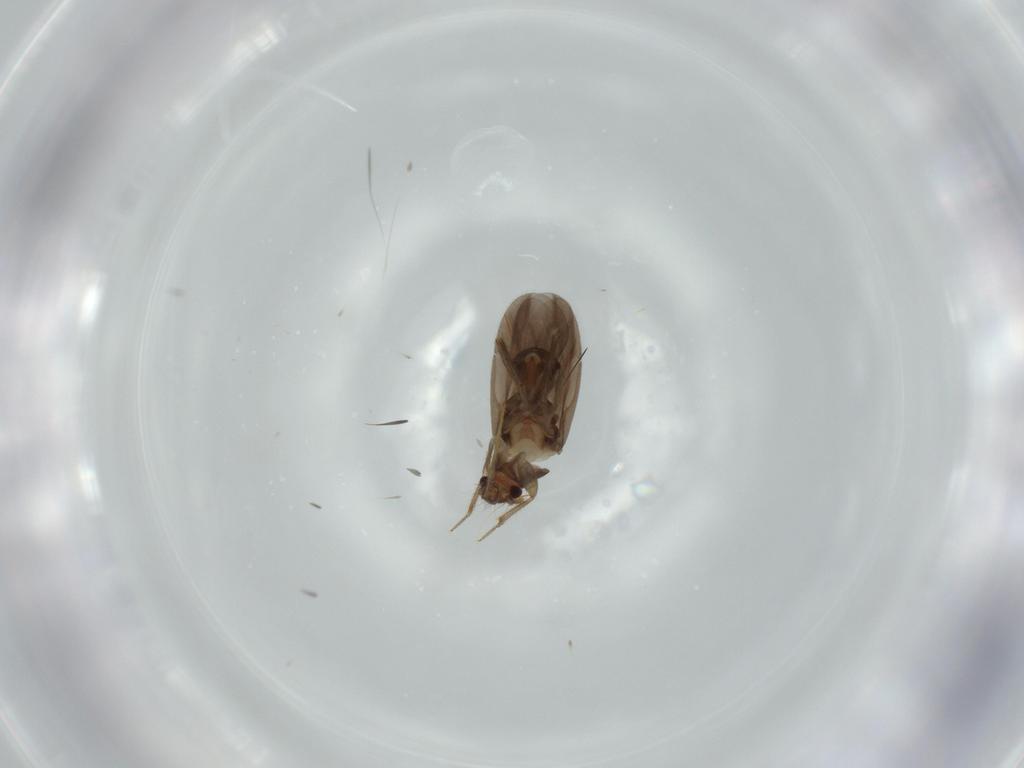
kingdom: Animalia
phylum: Arthropoda
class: Insecta
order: Hemiptera
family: Ceratocombidae
